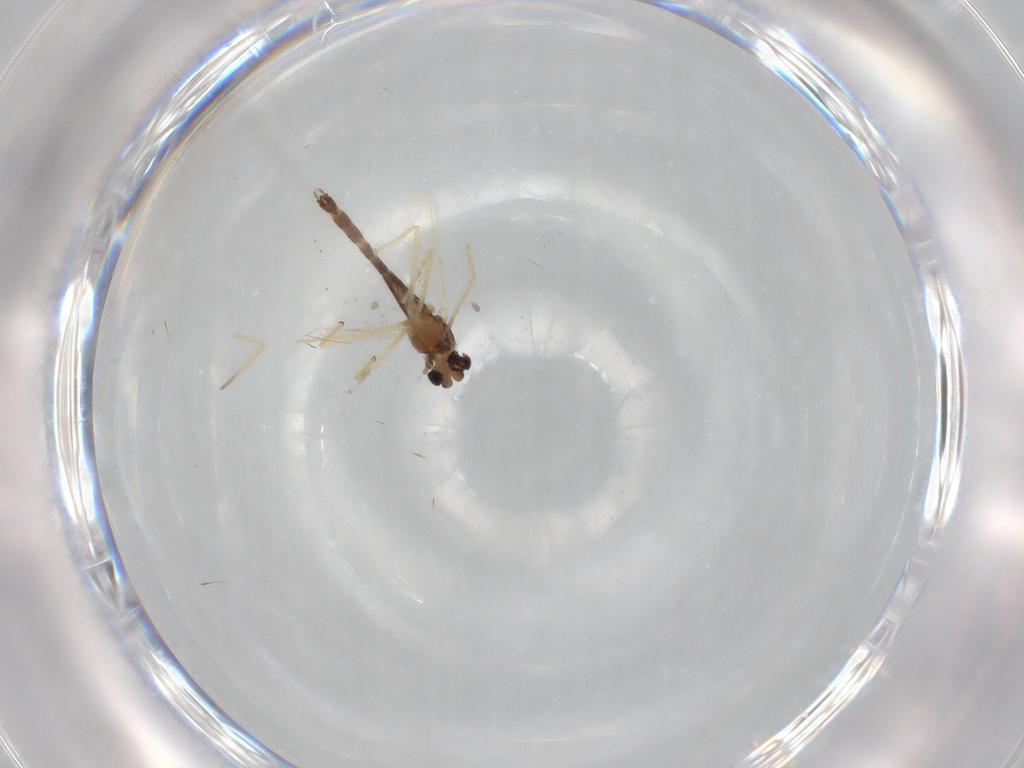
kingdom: Animalia
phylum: Arthropoda
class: Insecta
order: Diptera
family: Chironomidae
